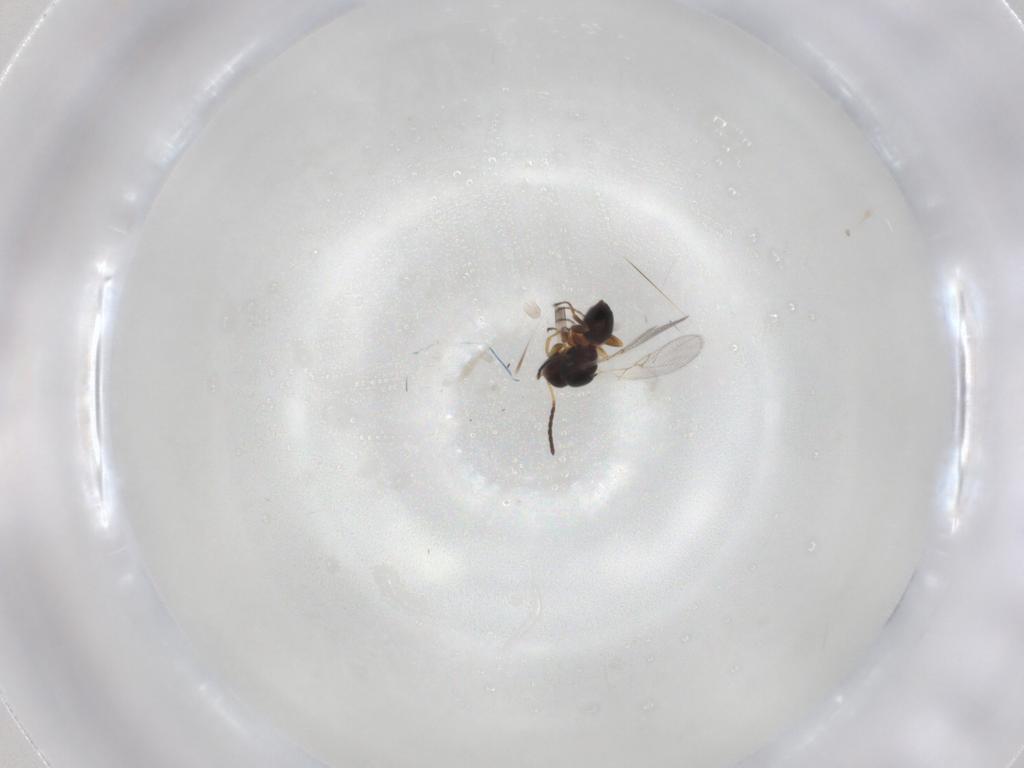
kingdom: Animalia
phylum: Arthropoda
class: Insecta
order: Hymenoptera
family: Figitidae
